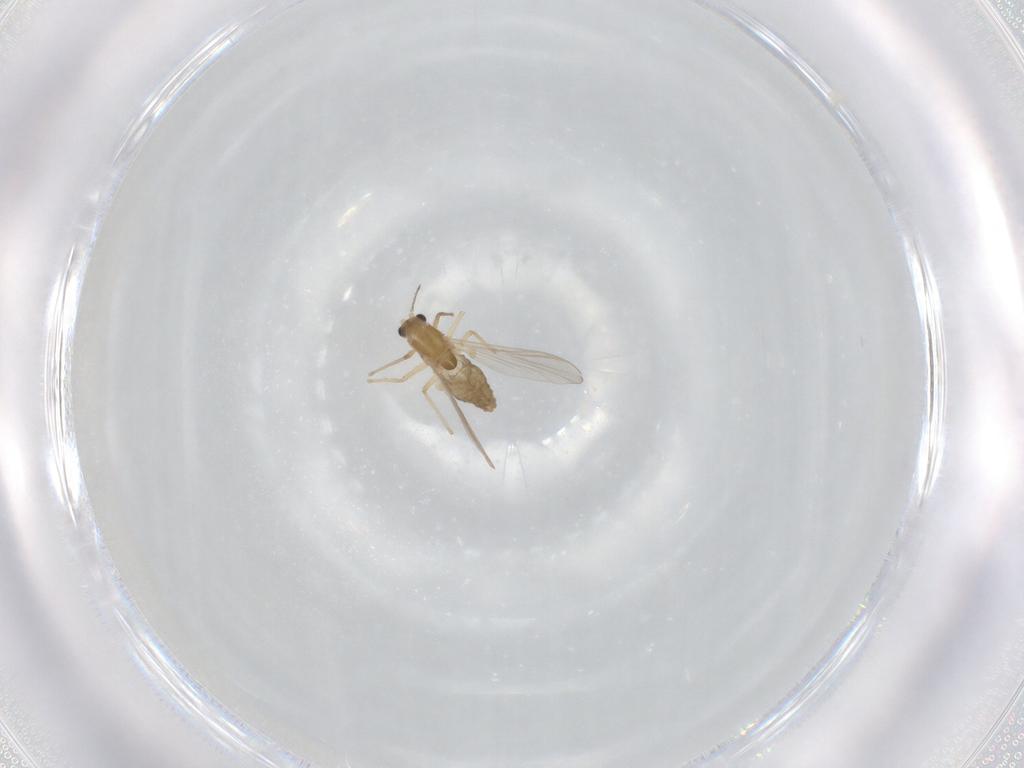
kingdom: Animalia
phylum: Arthropoda
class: Insecta
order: Diptera
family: Chironomidae
